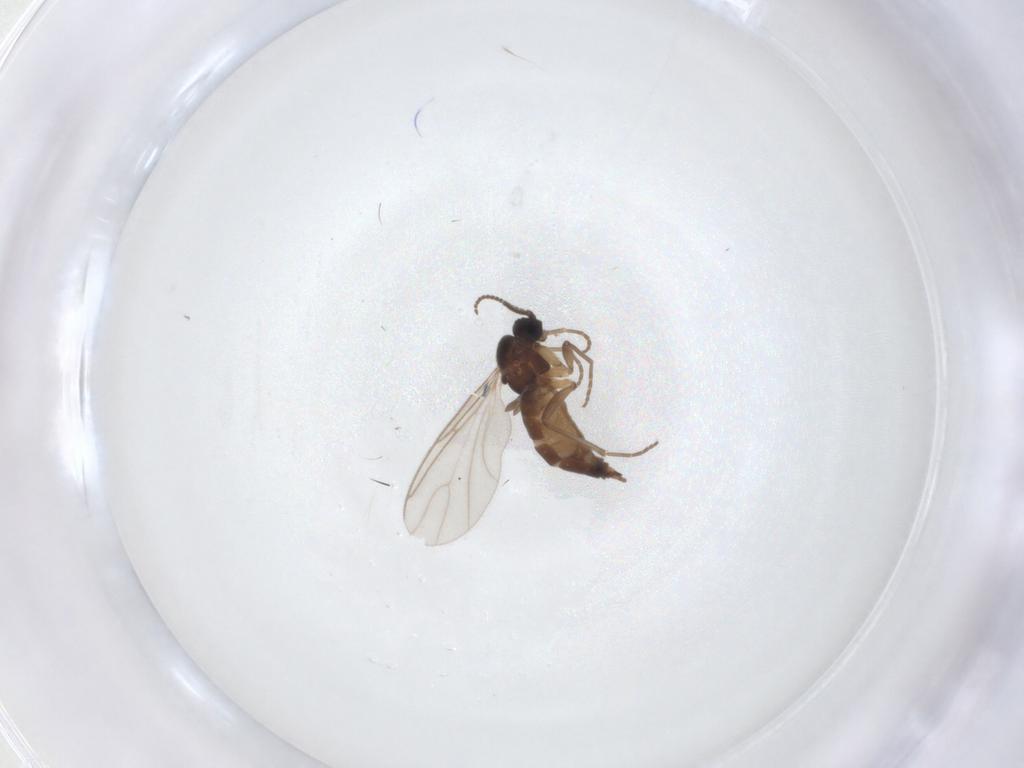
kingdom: Animalia
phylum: Arthropoda
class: Insecta
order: Diptera
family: Sciaridae
